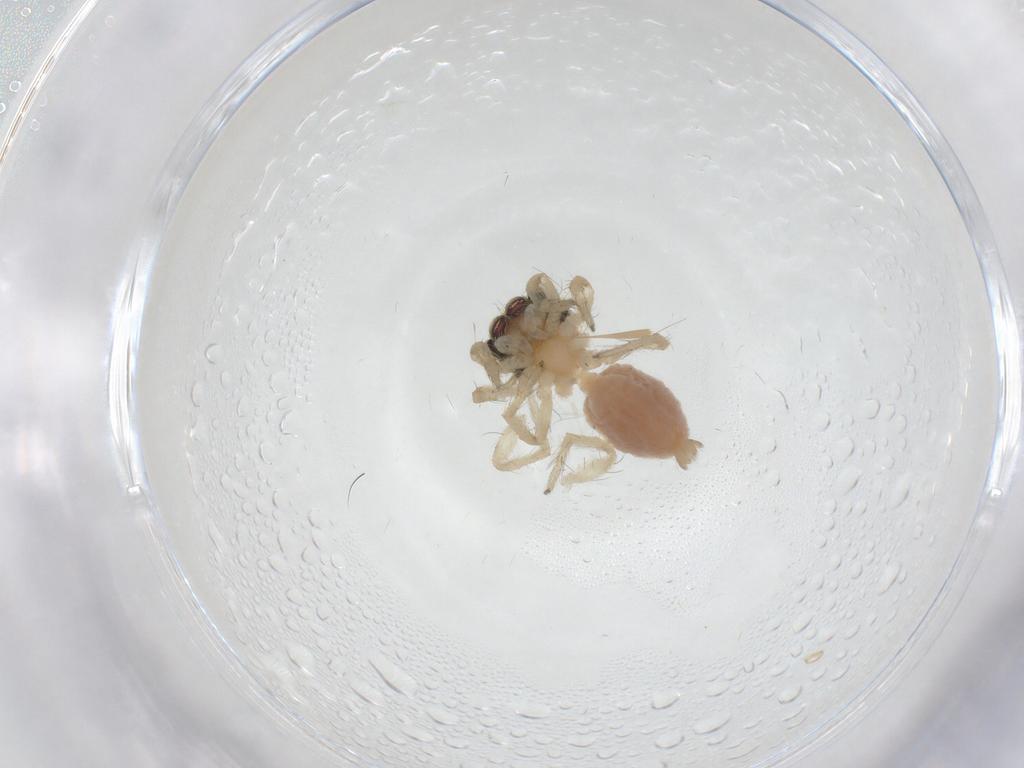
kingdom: Animalia
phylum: Arthropoda
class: Arachnida
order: Araneae
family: Salticidae
